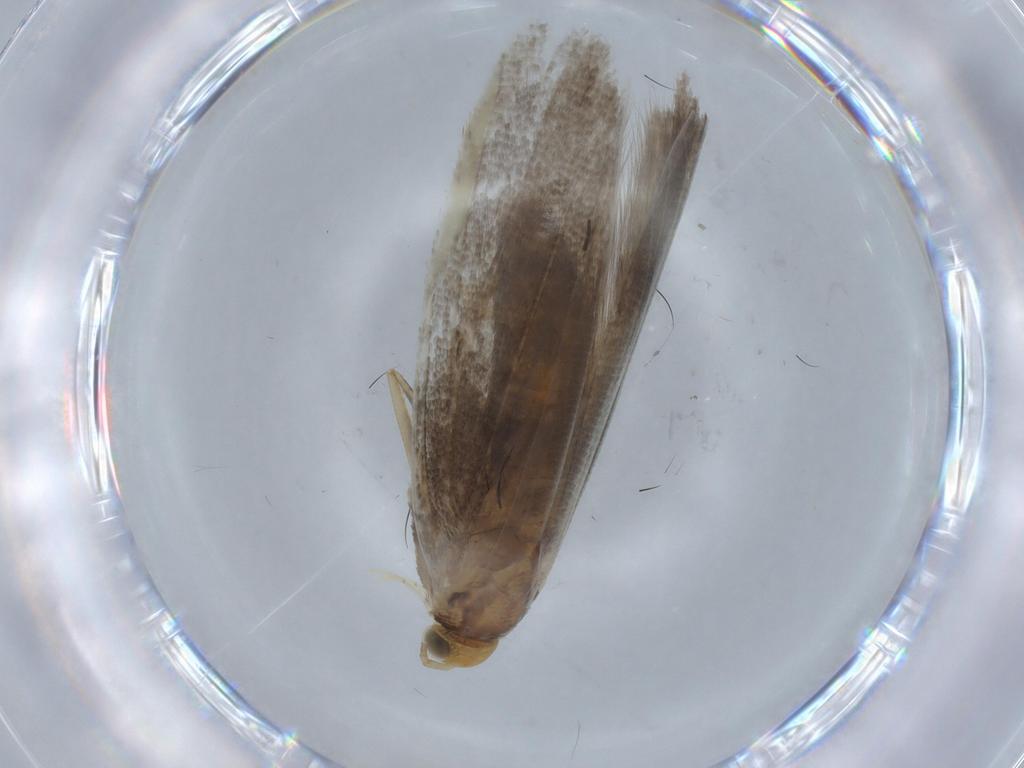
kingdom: Animalia
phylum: Arthropoda
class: Insecta
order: Lepidoptera
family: Argyresthiidae
